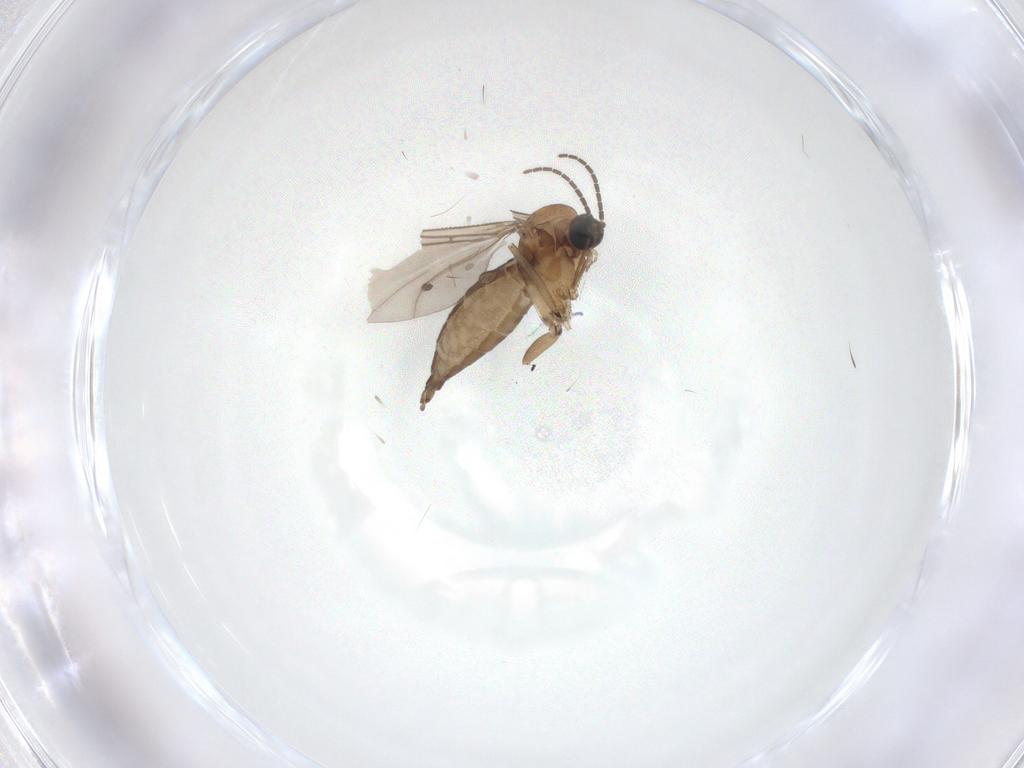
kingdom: Animalia
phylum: Arthropoda
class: Insecta
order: Diptera
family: Sciaridae
